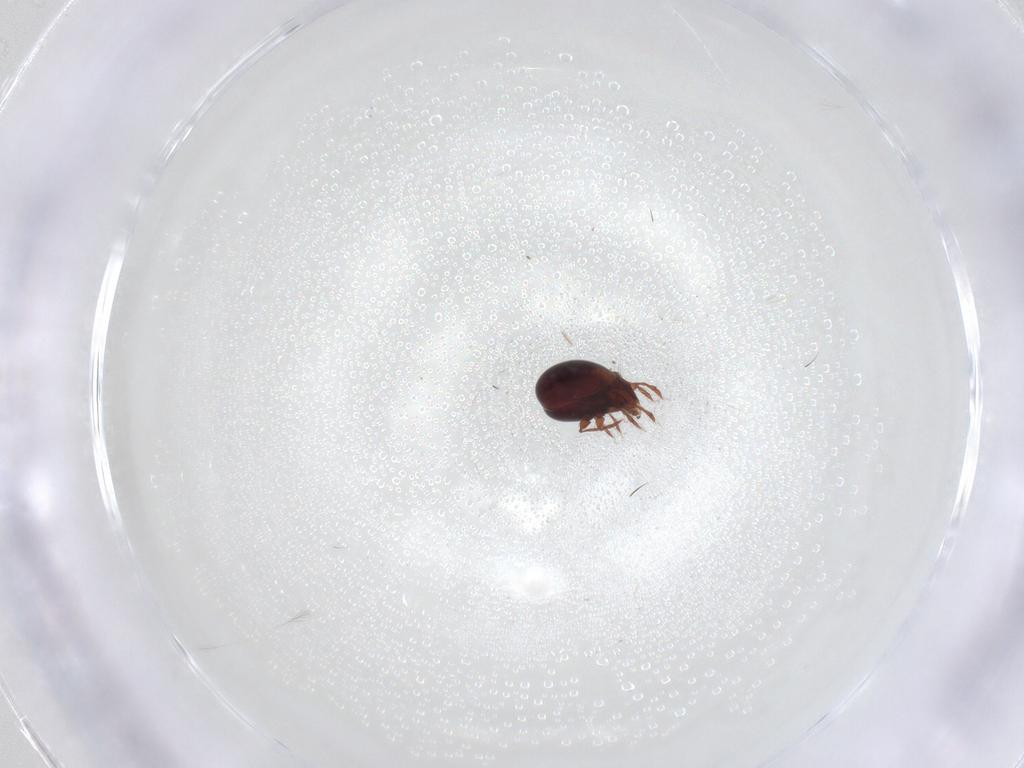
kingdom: Animalia
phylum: Arthropoda
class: Arachnida
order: Sarcoptiformes
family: Humerobatidae
